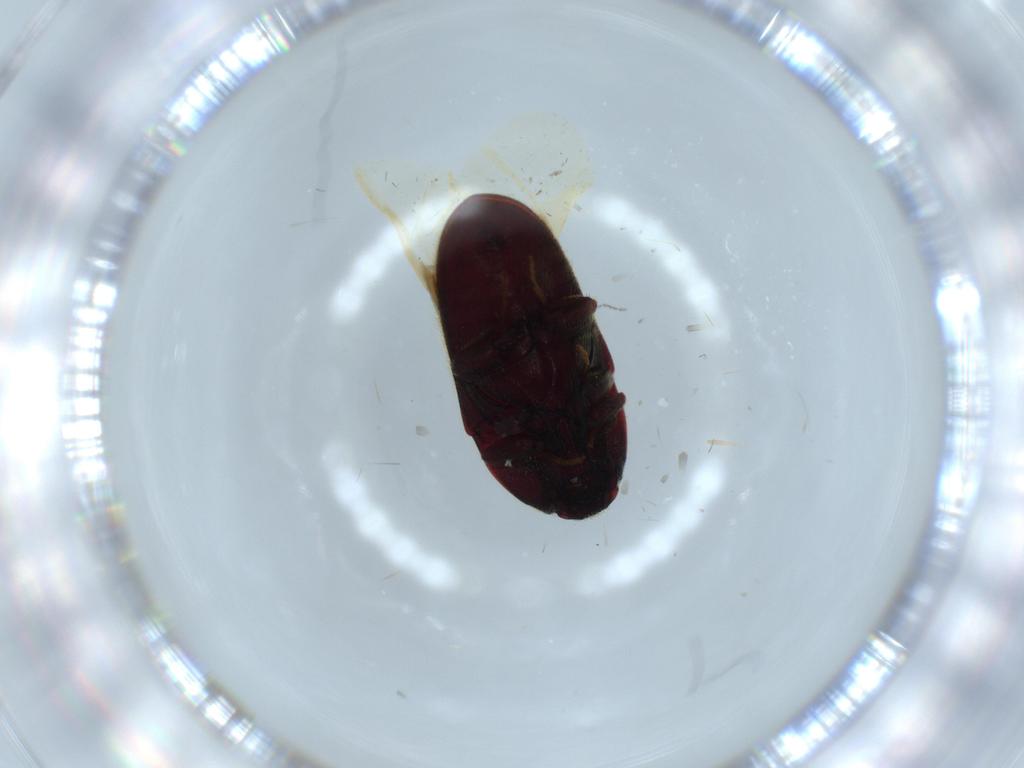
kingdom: Animalia
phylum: Arthropoda
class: Insecta
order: Coleoptera
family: Throscidae
